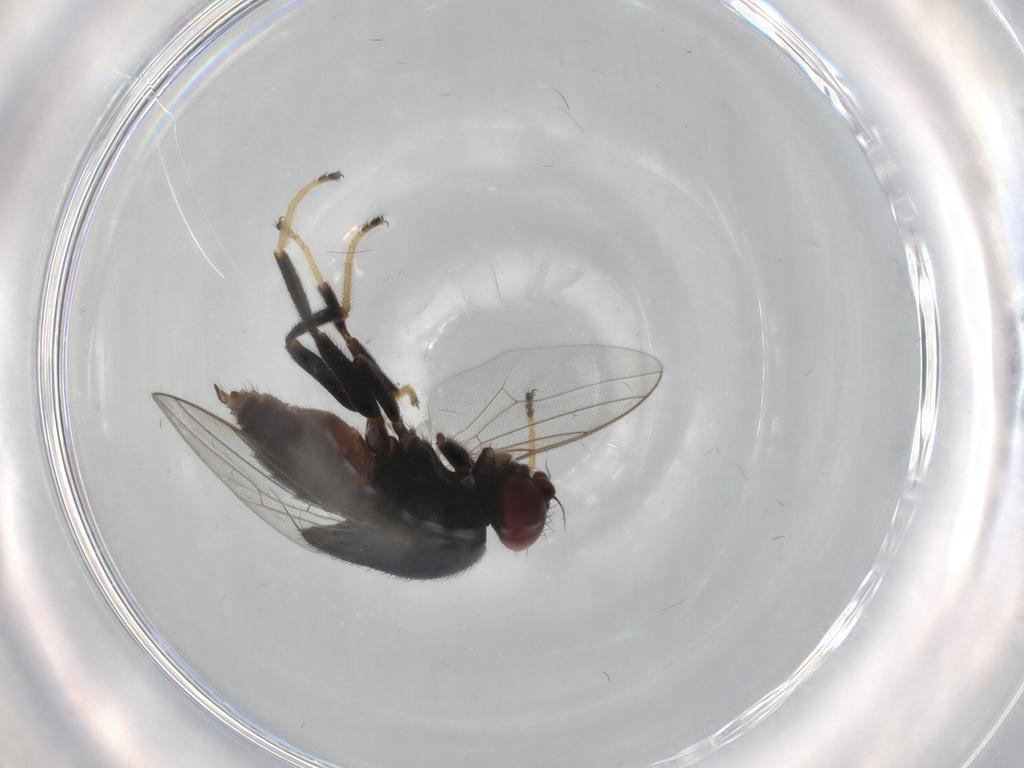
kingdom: Animalia
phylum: Arthropoda
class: Insecta
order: Diptera
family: Chloropidae
